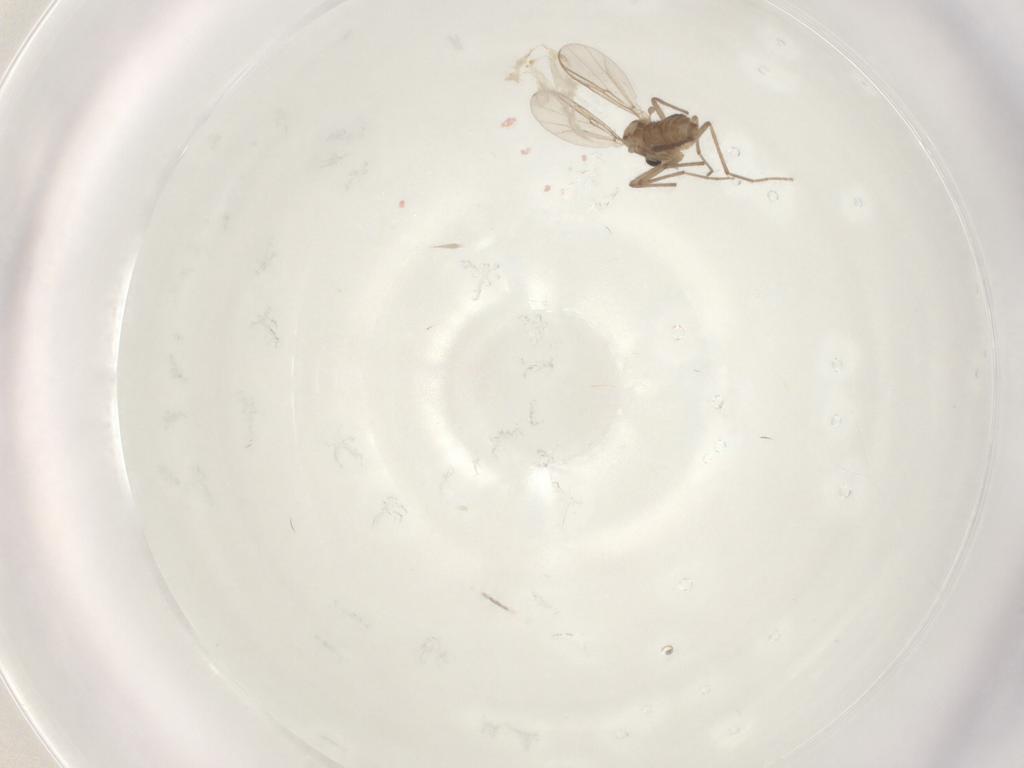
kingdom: Animalia
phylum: Arthropoda
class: Insecta
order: Diptera
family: Chironomidae
